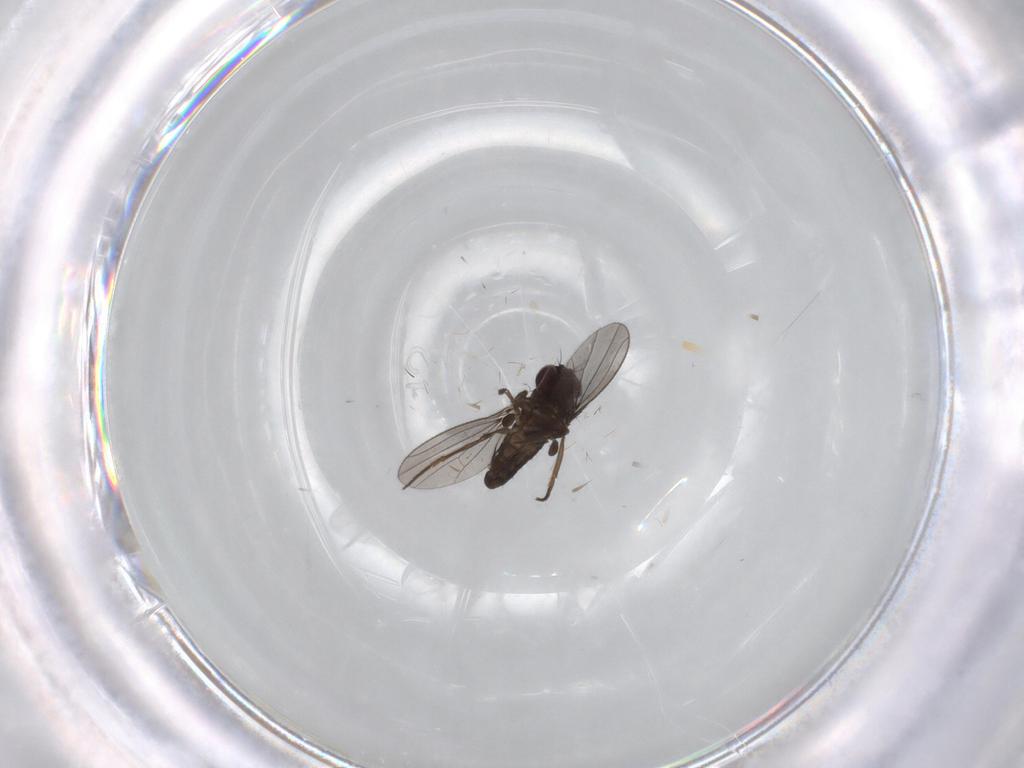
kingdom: Animalia
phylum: Arthropoda
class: Insecta
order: Diptera
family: Dolichopodidae
